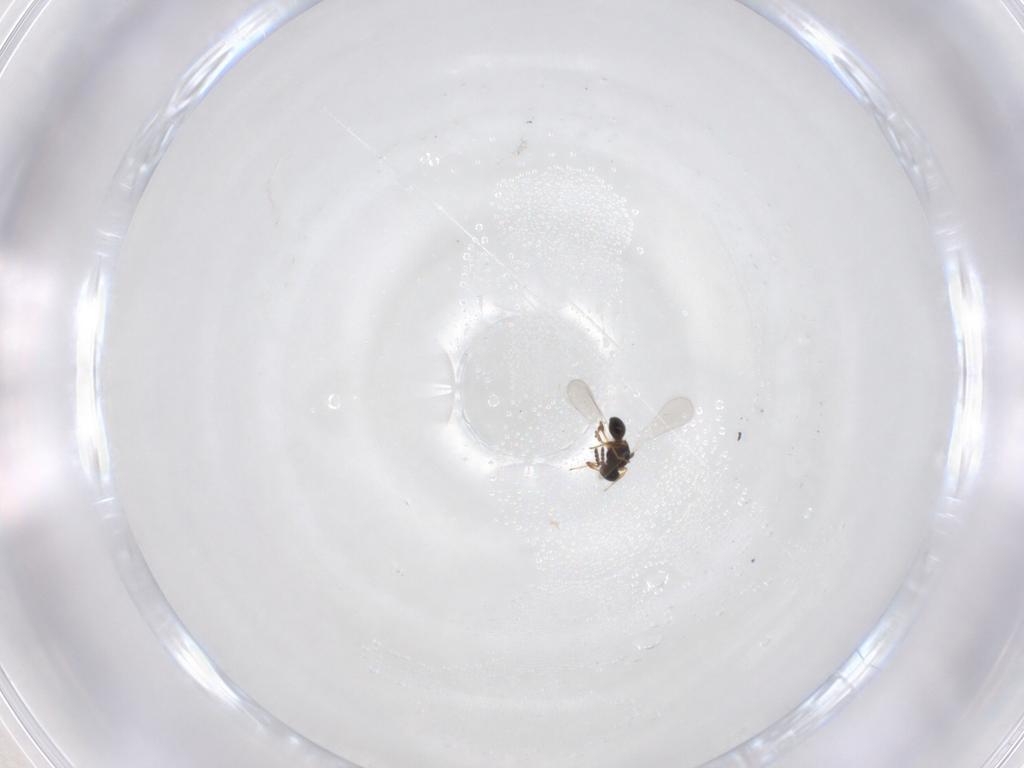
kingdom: Animalia
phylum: Arthropoda
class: Insecta
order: Hymenoptera
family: Platygastridae
